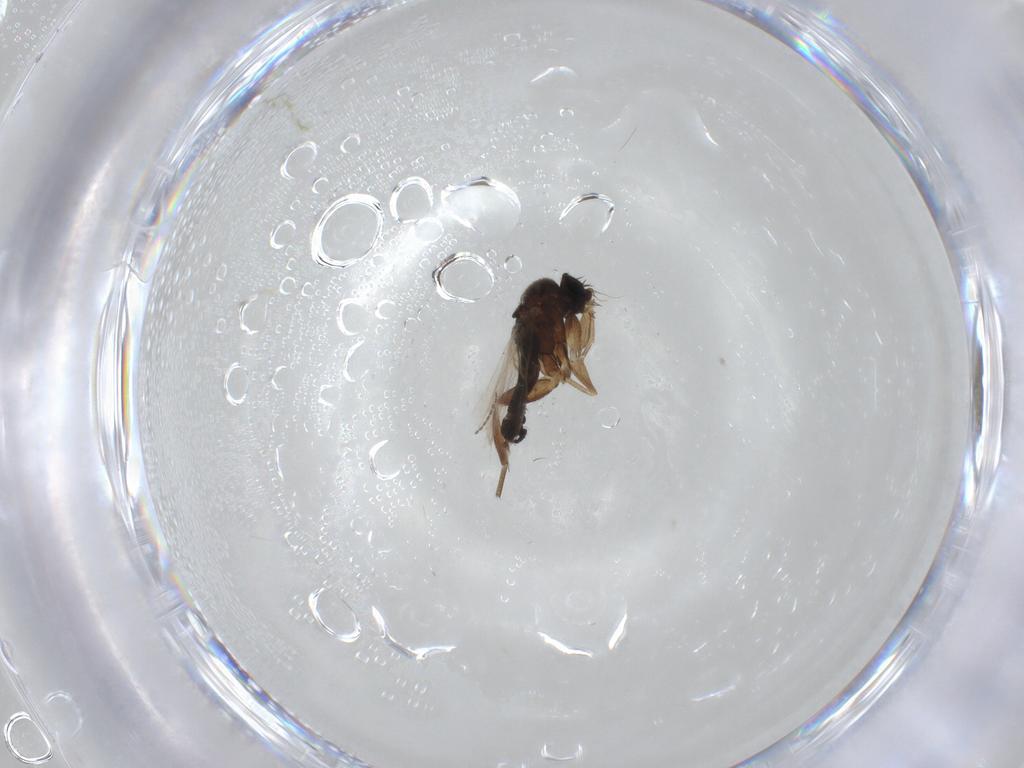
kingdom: Animalia
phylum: Arthropoda
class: Insecta
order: Diptera
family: Phoridae
